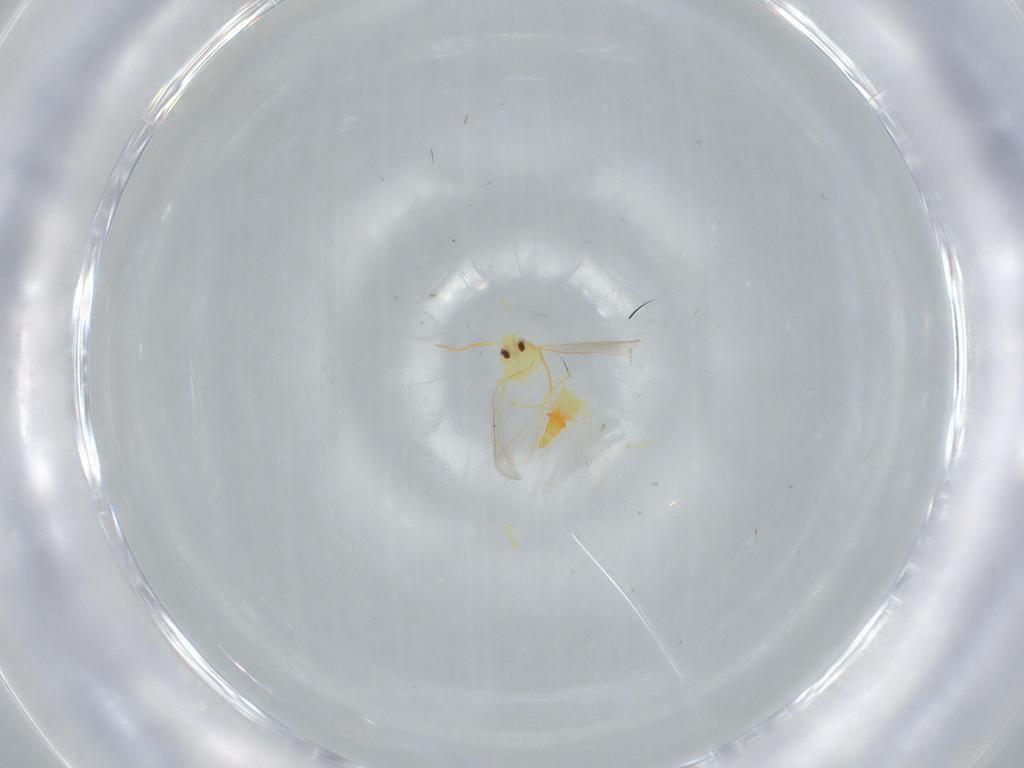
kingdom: Animalia
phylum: Arthropoda
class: Insecta
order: Hemiptera
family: Aleyrodidae
